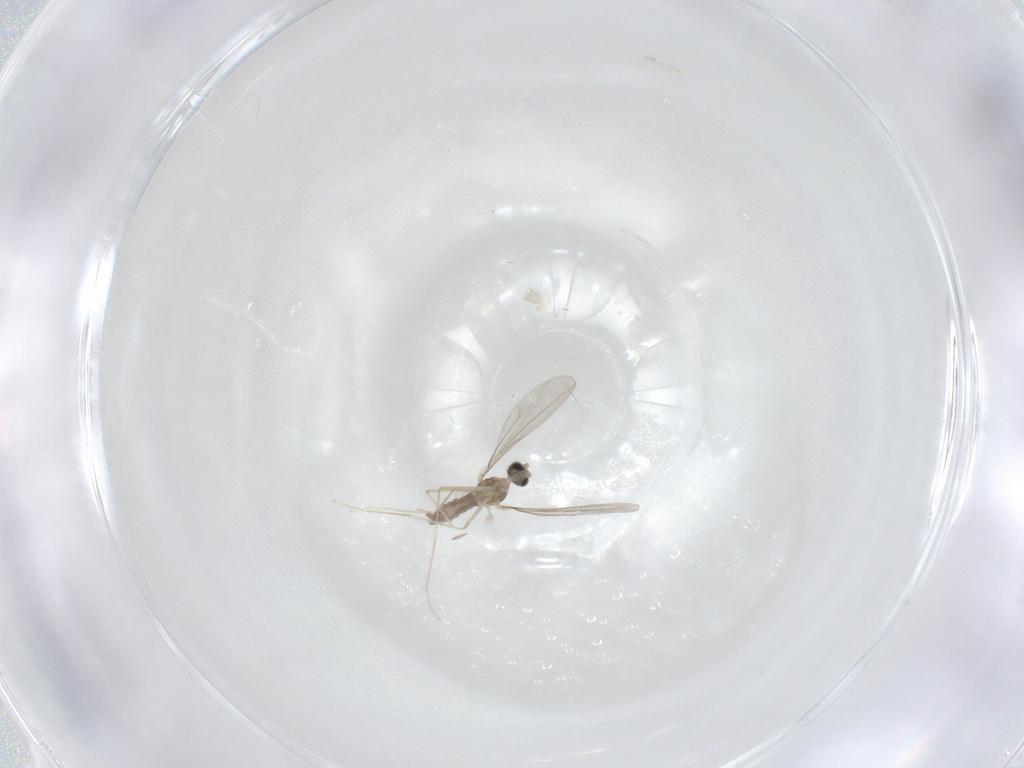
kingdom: Animalia
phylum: Arthropoda
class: Insecta
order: Diptera
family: Cecidomyiidae
